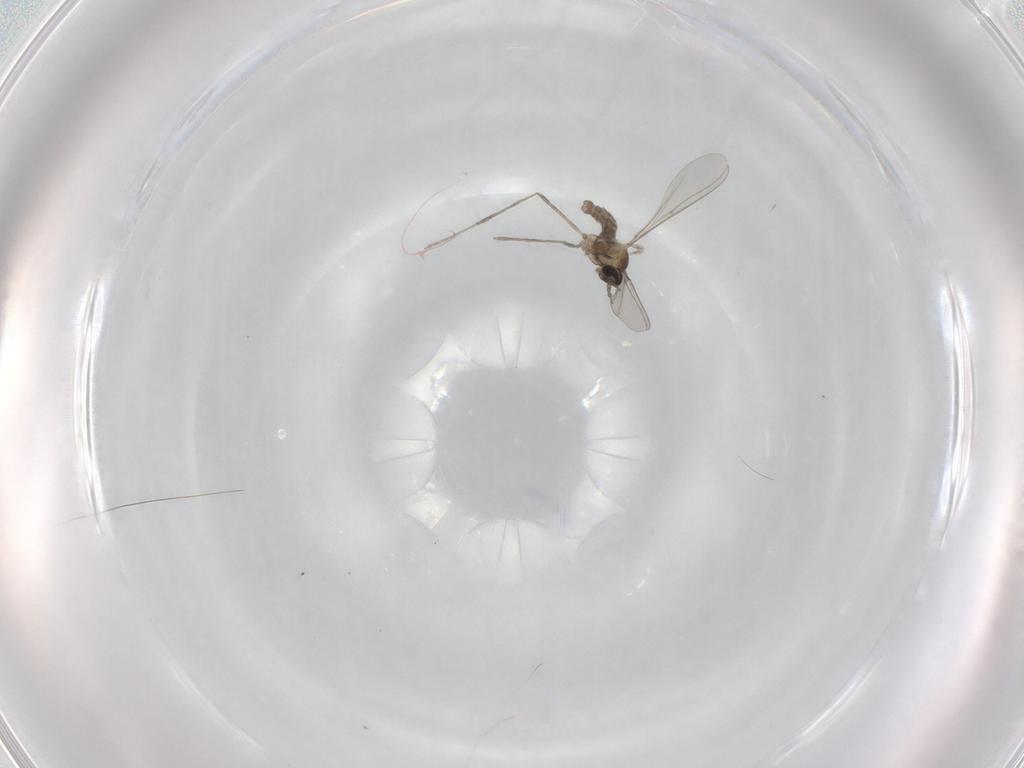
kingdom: Animalia
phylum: Arthropoda
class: Insecta
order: Diptera
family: Cecidomyiidae
